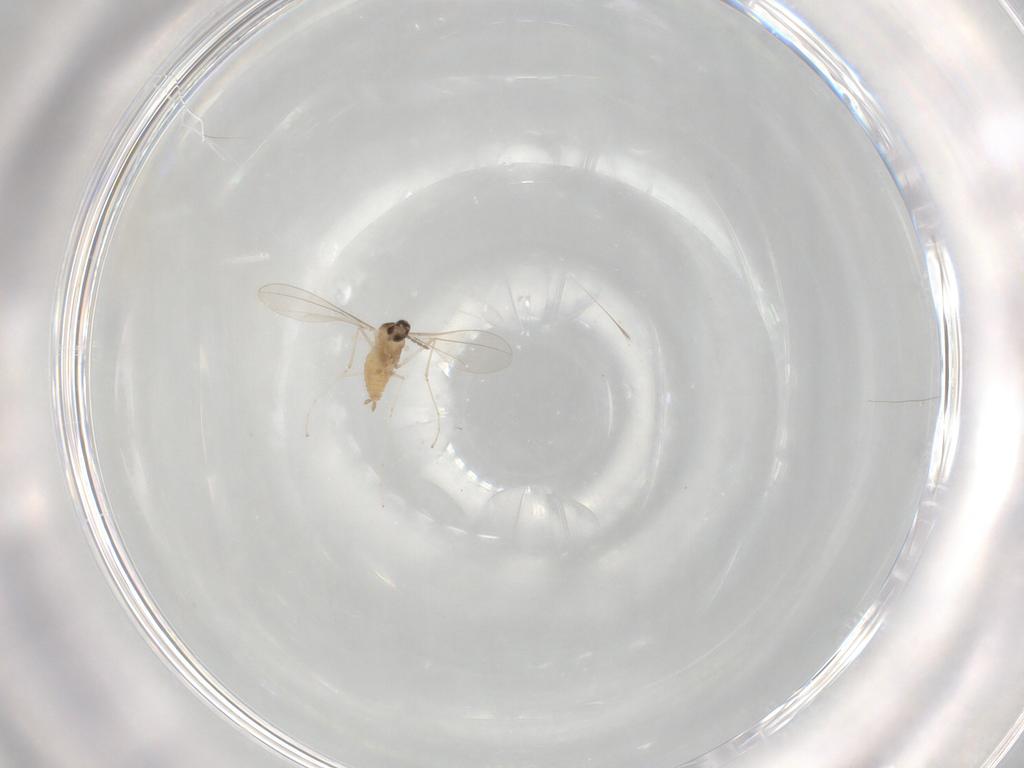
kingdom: Animalia
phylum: Arthropoda
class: Insecta
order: Diptera
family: Cecidomyiidae
